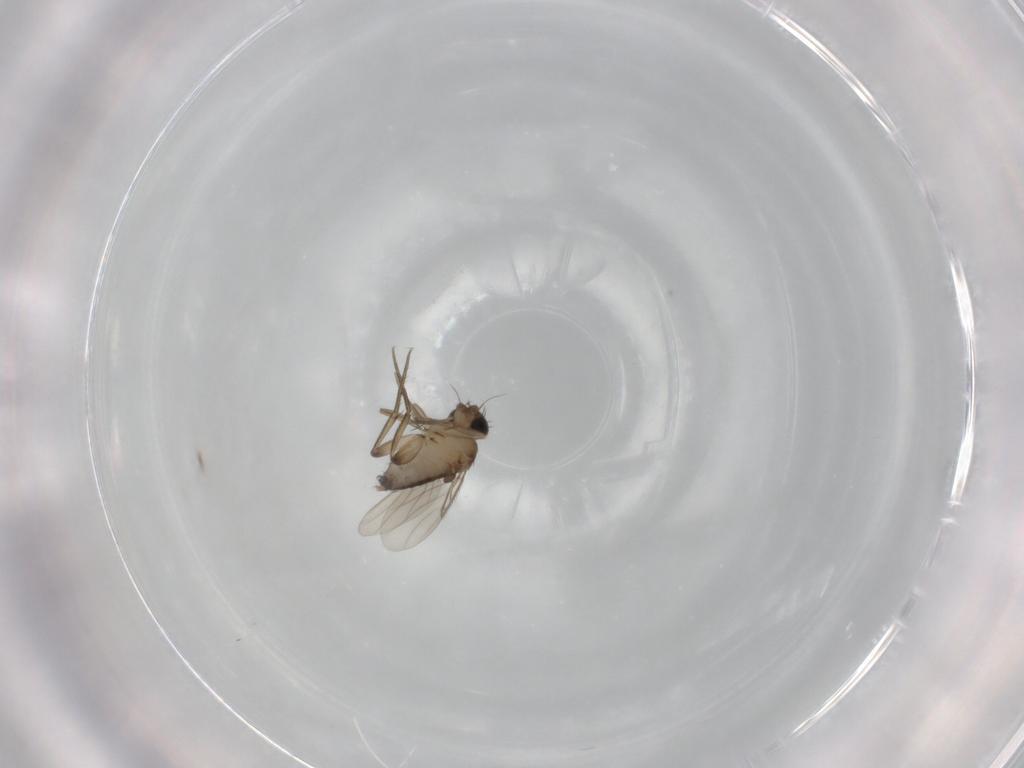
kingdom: Animalia
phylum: Arthropoda
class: Insecta
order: Diptera
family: Phoridae
